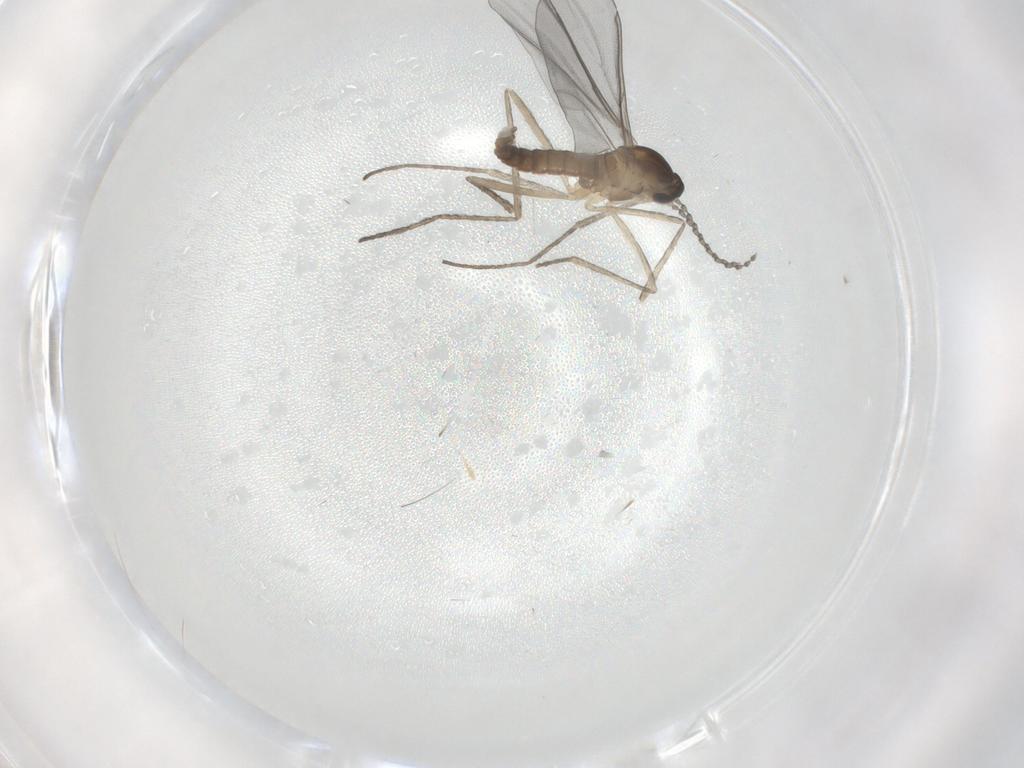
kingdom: Animalia
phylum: Arthropoda
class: Insecta
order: Diptera
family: Cecidomyiidae
